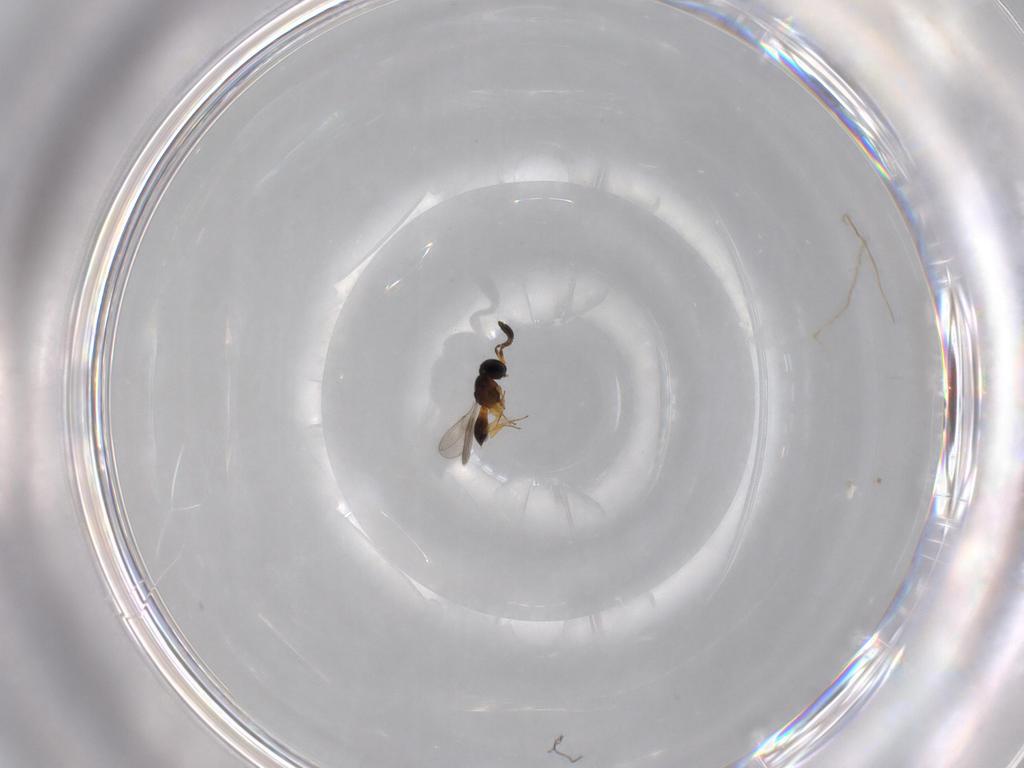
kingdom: Animalia
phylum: Arthropoda
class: Insecta
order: Hymenoptera
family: Scelionidae
